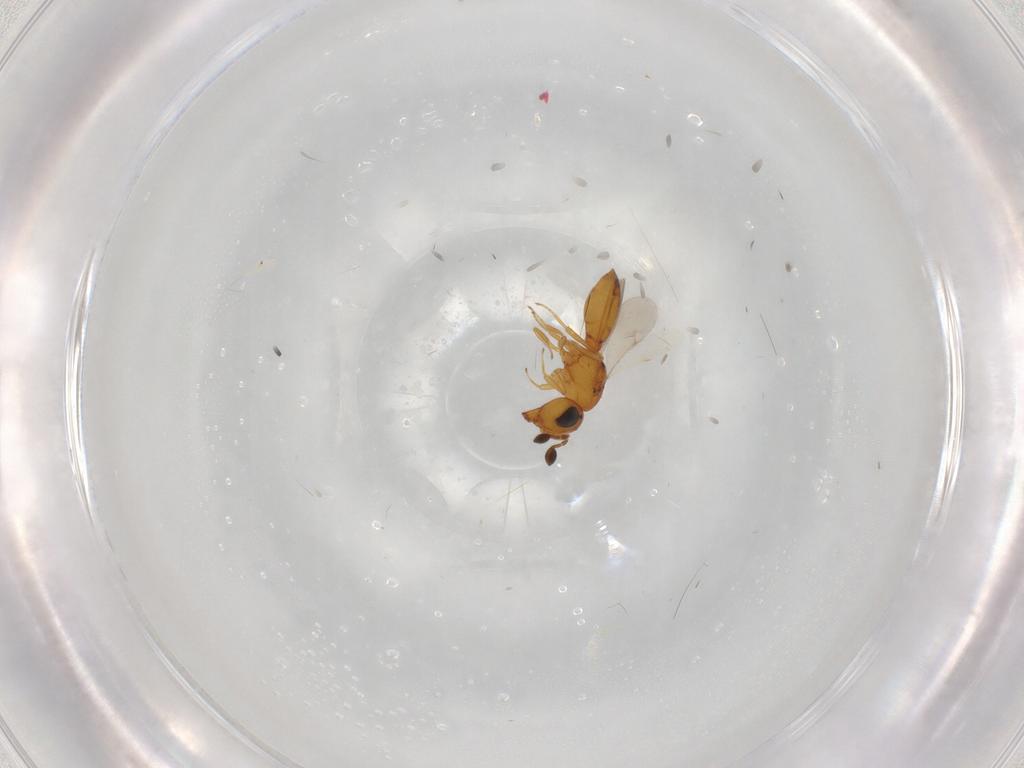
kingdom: Animalia
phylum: Arthropoda
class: Insecta
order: Hymenoptera
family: Scelionidae
